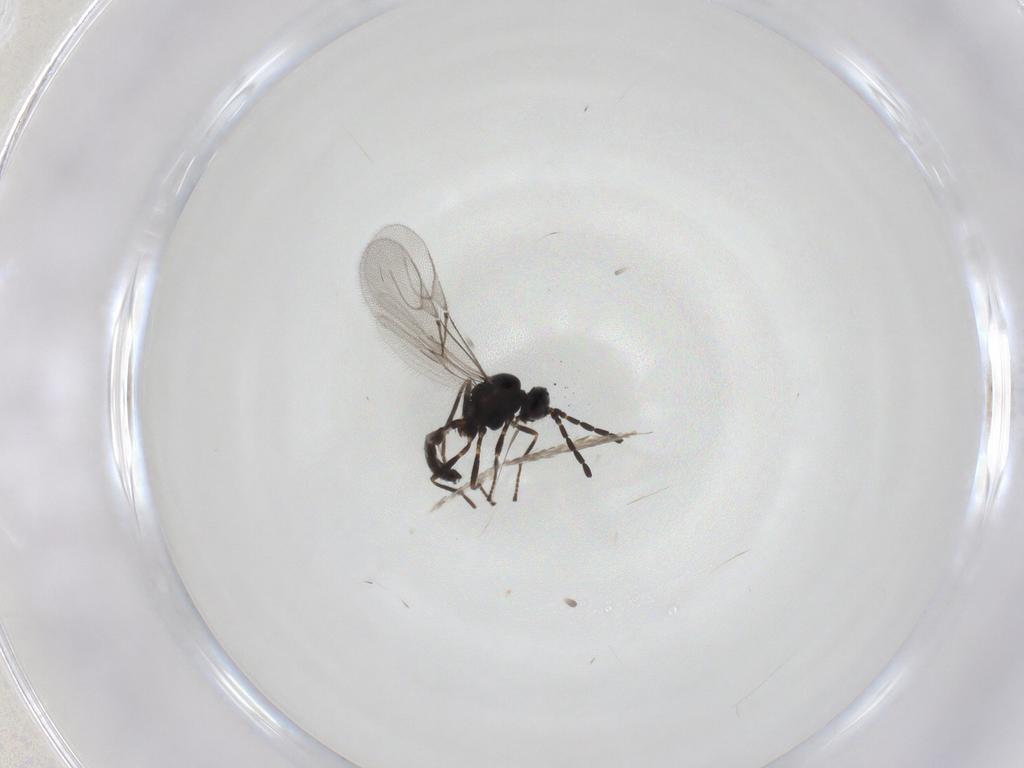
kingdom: Animalia
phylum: Arthropoda
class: Insecta
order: Hymenoptera
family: Braconidae
